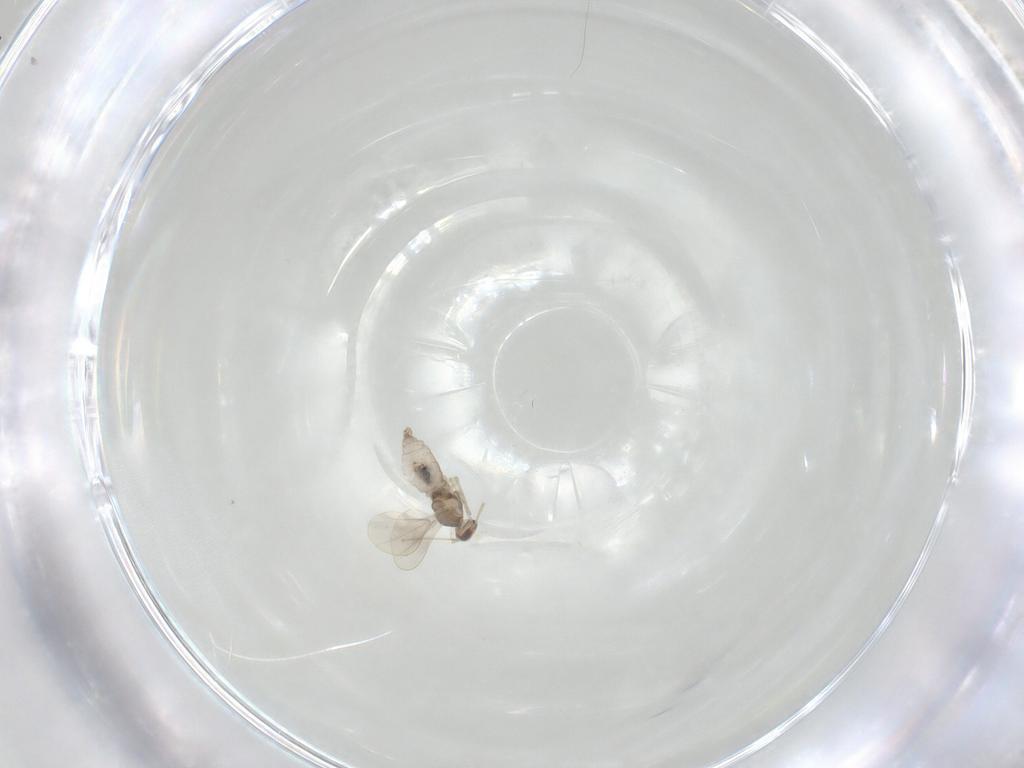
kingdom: Animalia
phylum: Arthropoda
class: Insecta
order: Diptera
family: Cecidomyiidae
